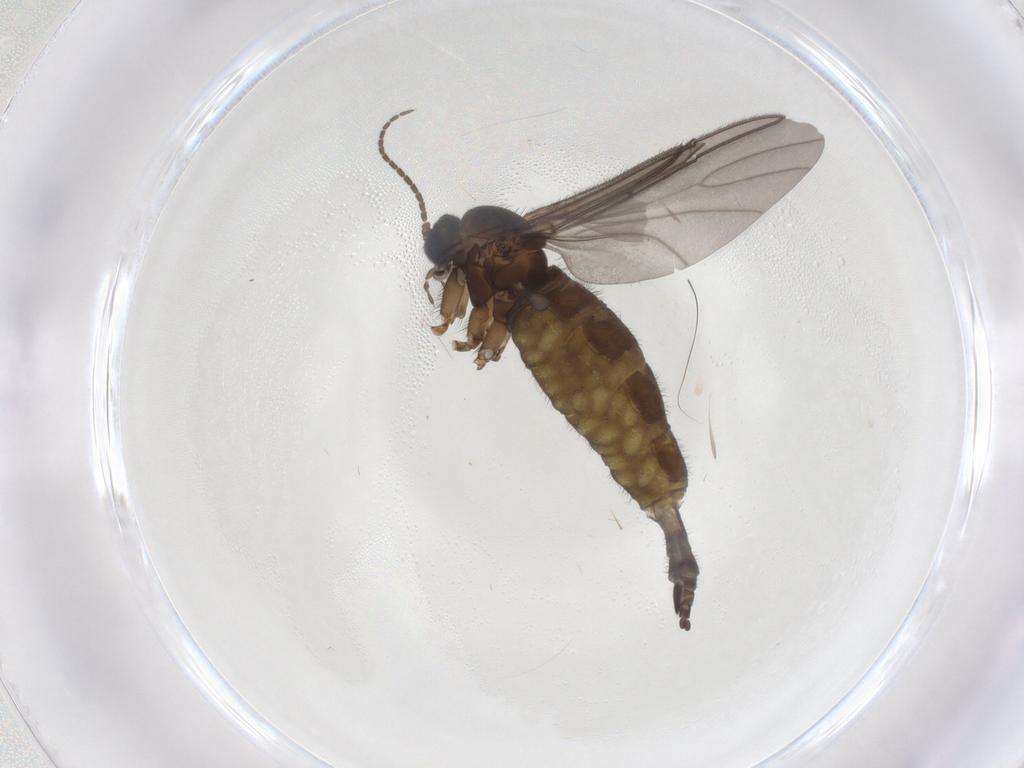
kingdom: Animalia
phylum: Arthropoda
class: Insecta
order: Diptera
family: Sciaridae
